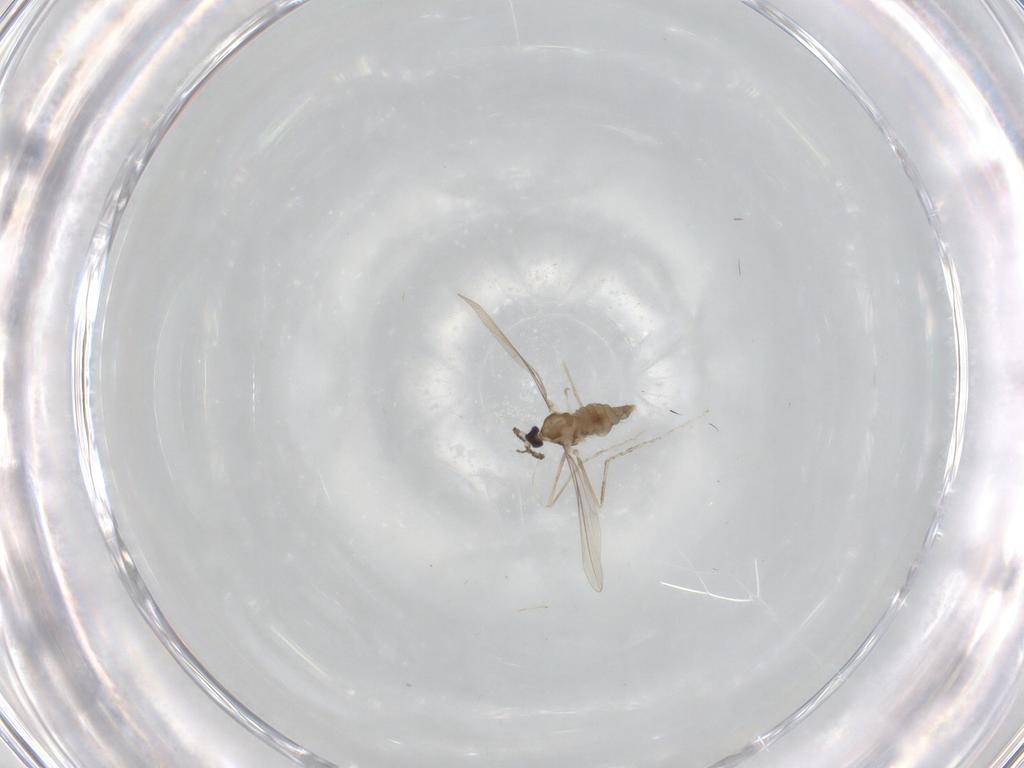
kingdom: Animalia
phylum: Arthropoda
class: Insecta
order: Diptera
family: Cecidomyiidae
